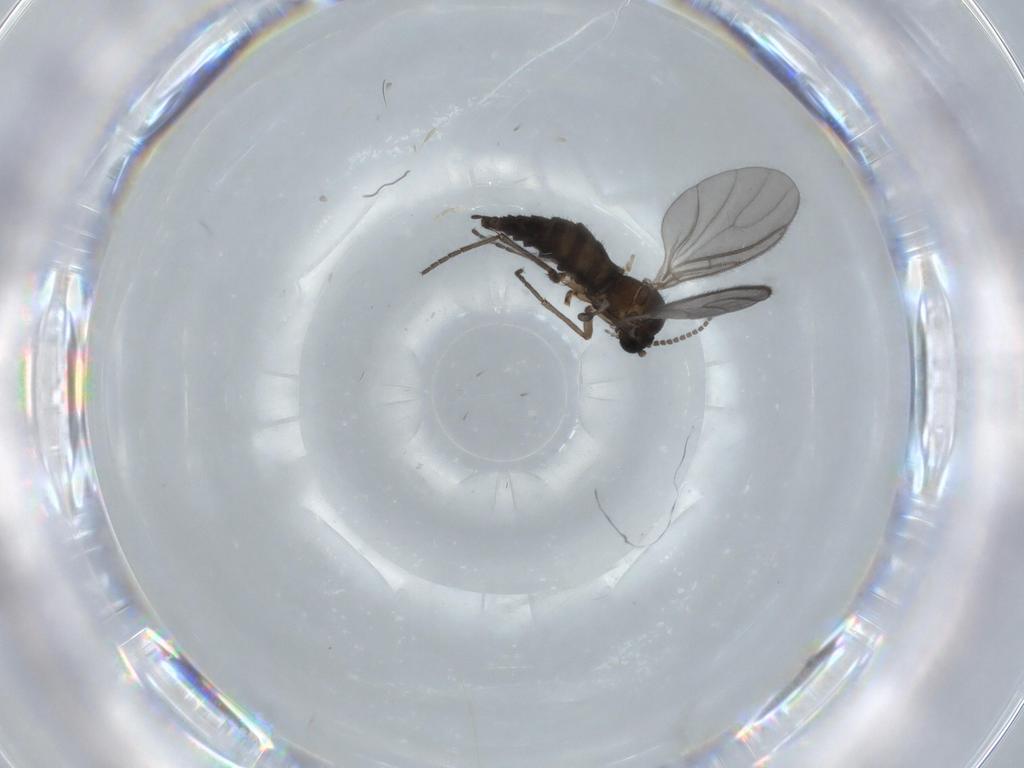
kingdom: Animalia
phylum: Arthropoda
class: Insecta
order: Diptera
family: Sciaridae
